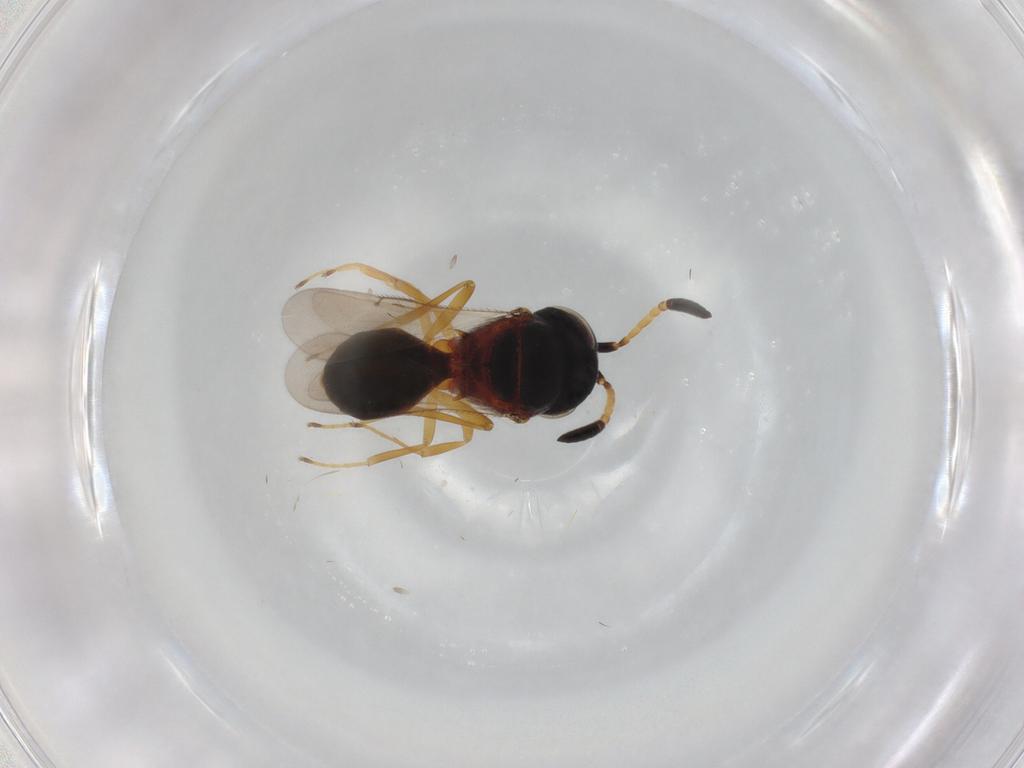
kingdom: Animalia
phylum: Arthropoda
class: Insecta
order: Hymenoptera
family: Scelionidae
